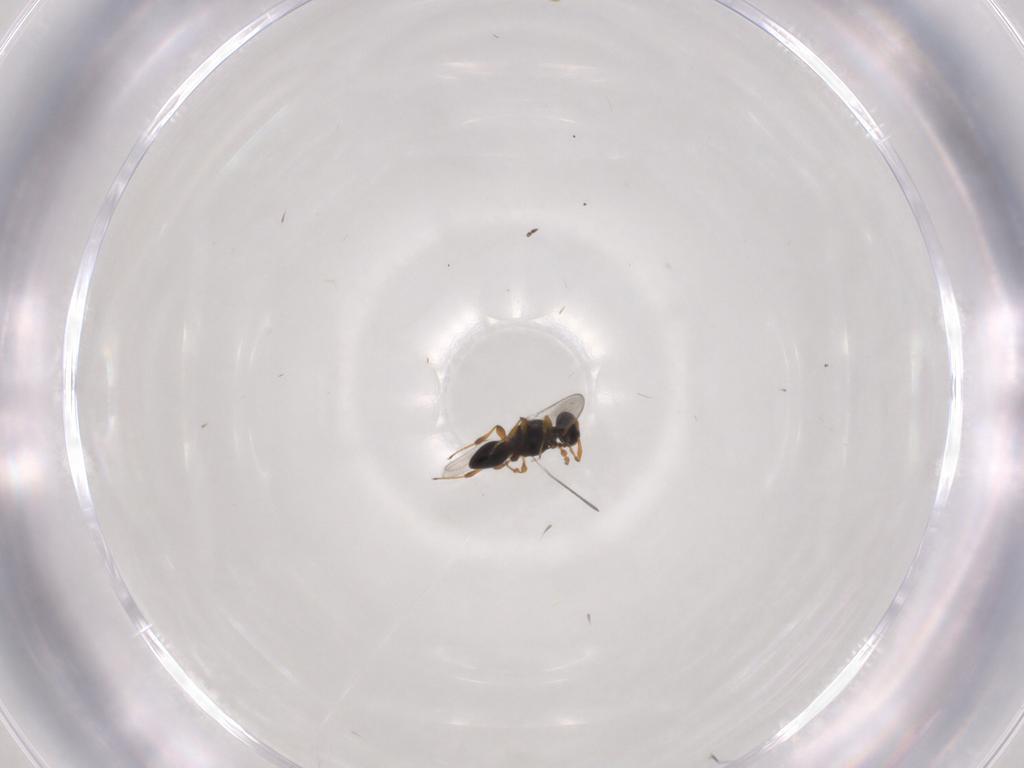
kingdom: Animalia
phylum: Arthropoda
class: Insecta
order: Hymenoptera
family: Platygastridae
